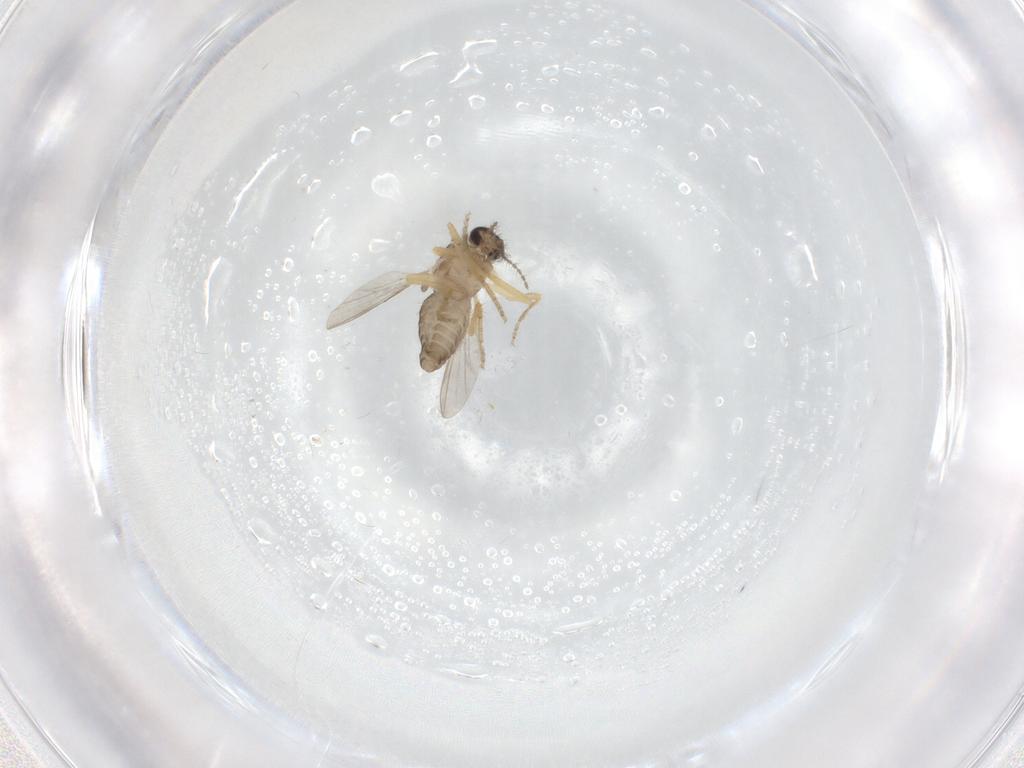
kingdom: Animalia
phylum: Arthropoda
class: Insecta
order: Diptera
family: Ceratopogonidae
